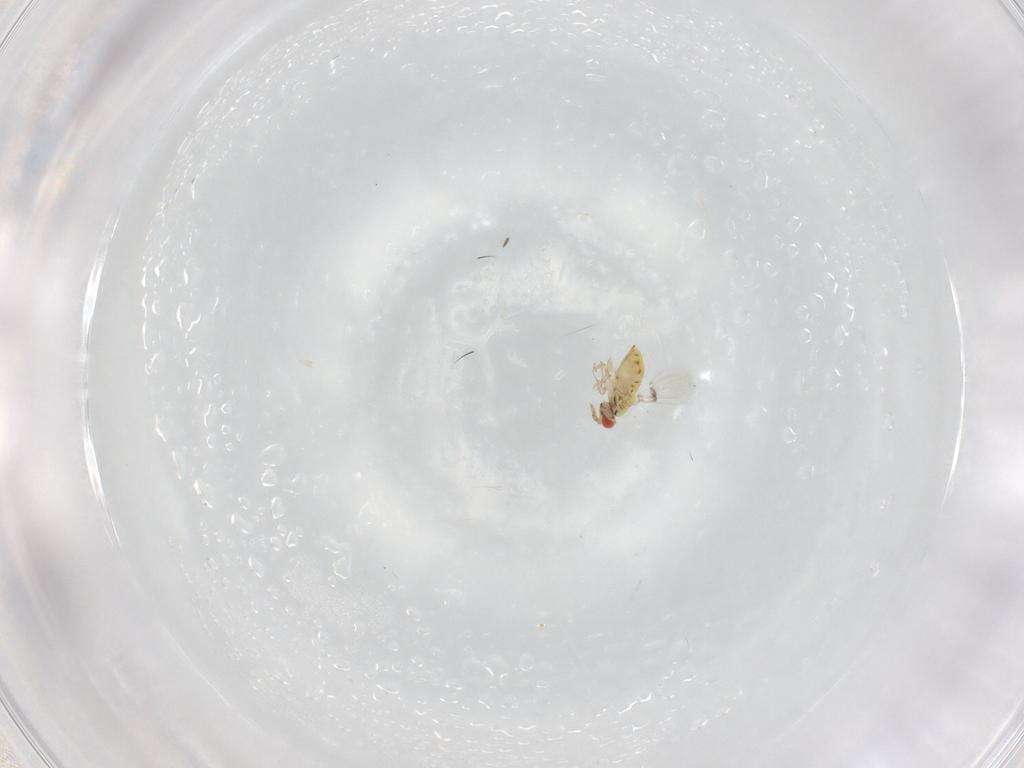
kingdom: Animalia
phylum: Arthropoda
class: Insecta
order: Hymenoptera
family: Trichogrammatidae
